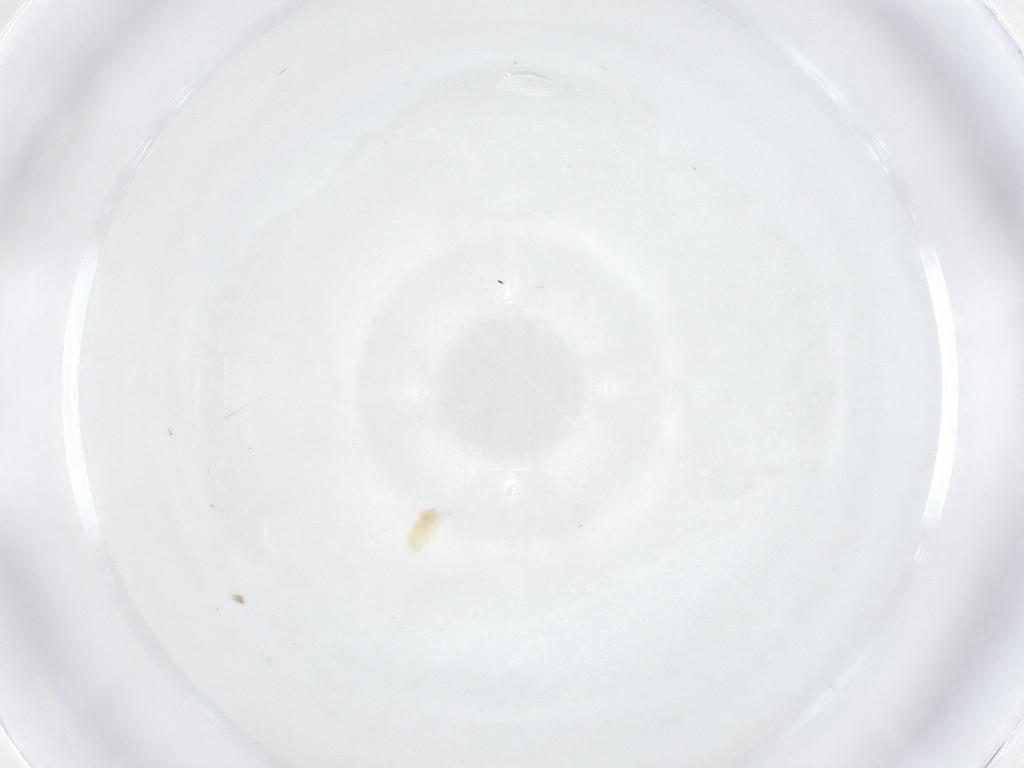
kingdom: Animalia
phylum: Arthropoda
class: Arachnida
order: Trombidiformes
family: Eupodidae
